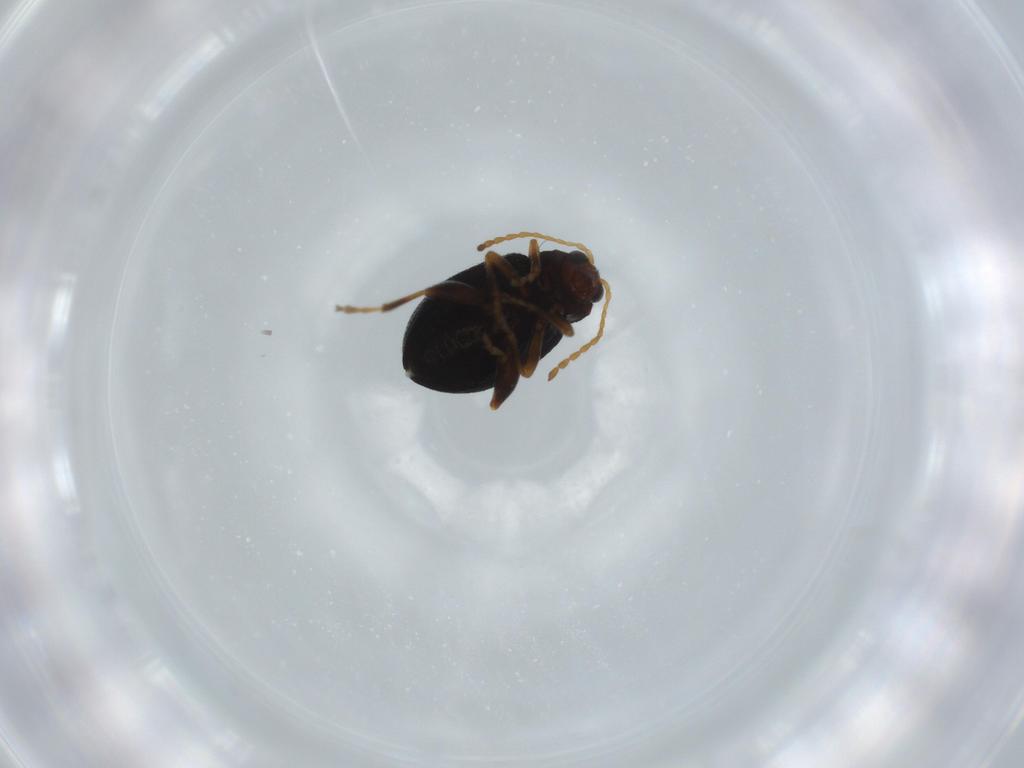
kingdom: Animalia
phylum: Arthropoda
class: Insecta
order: Coleoptera
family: Chrysomelidae
